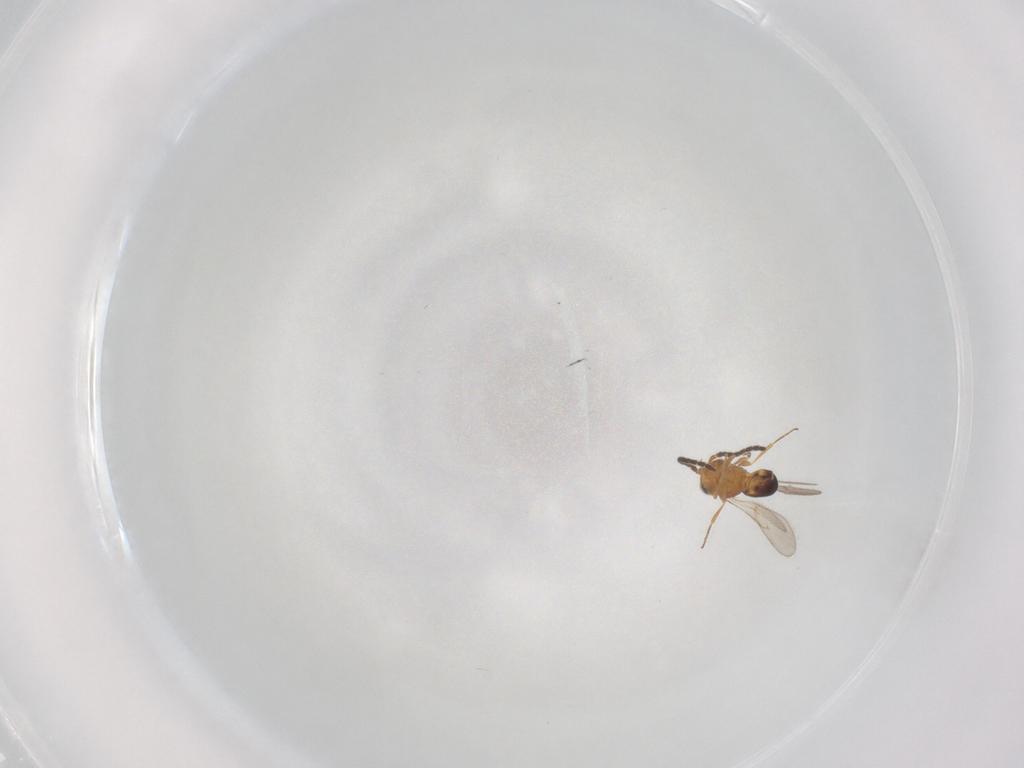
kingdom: Animalia
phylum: Arthropoda
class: Insecta
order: Hymenoptera
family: Scelionidae
